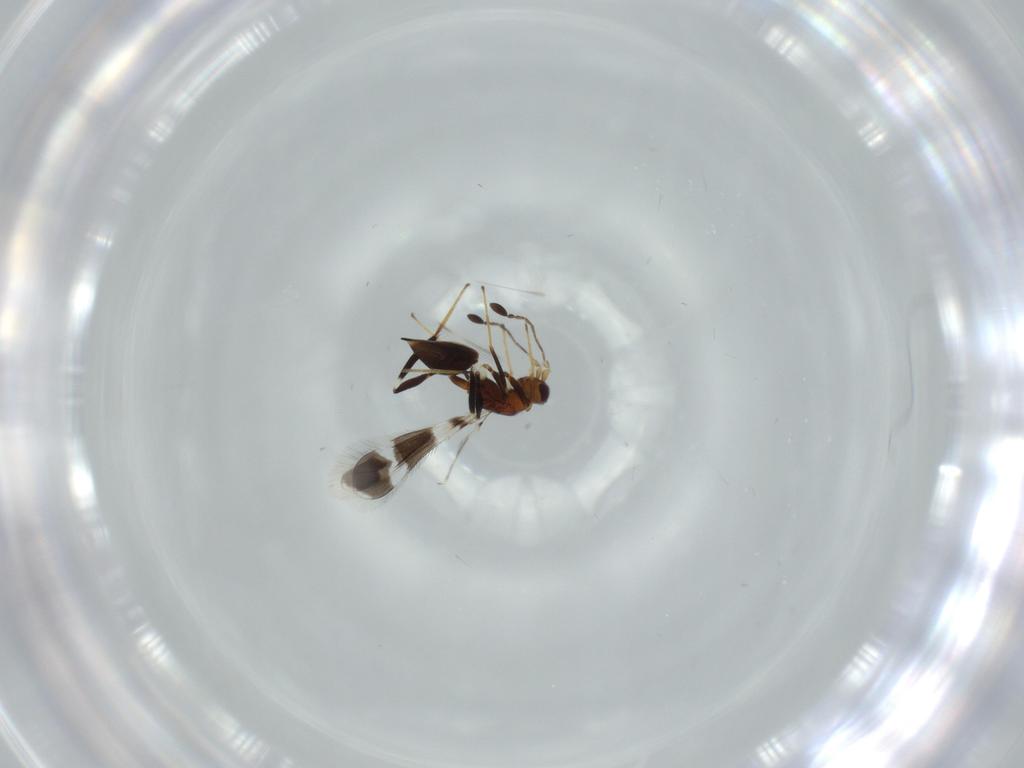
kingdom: Animalia
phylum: Arthropoda
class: Insecta
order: Hymenoptera
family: Mymaridae
